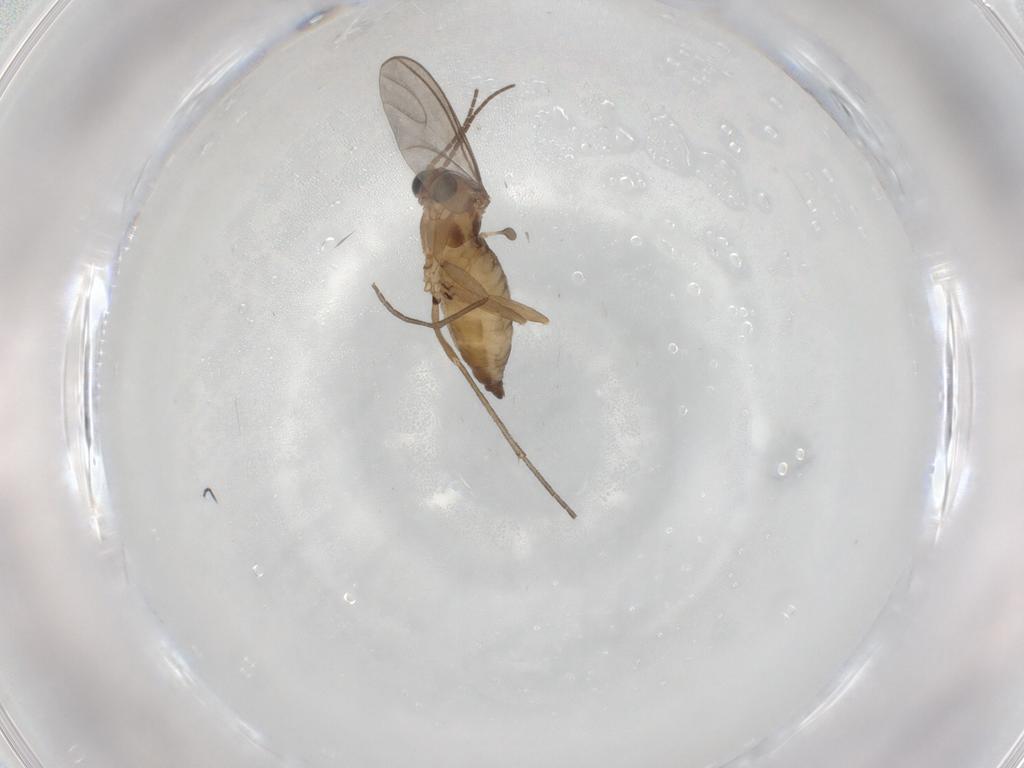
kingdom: Animalia
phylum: Arthropoda
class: Insecta
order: Diptera
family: Sciaridae
